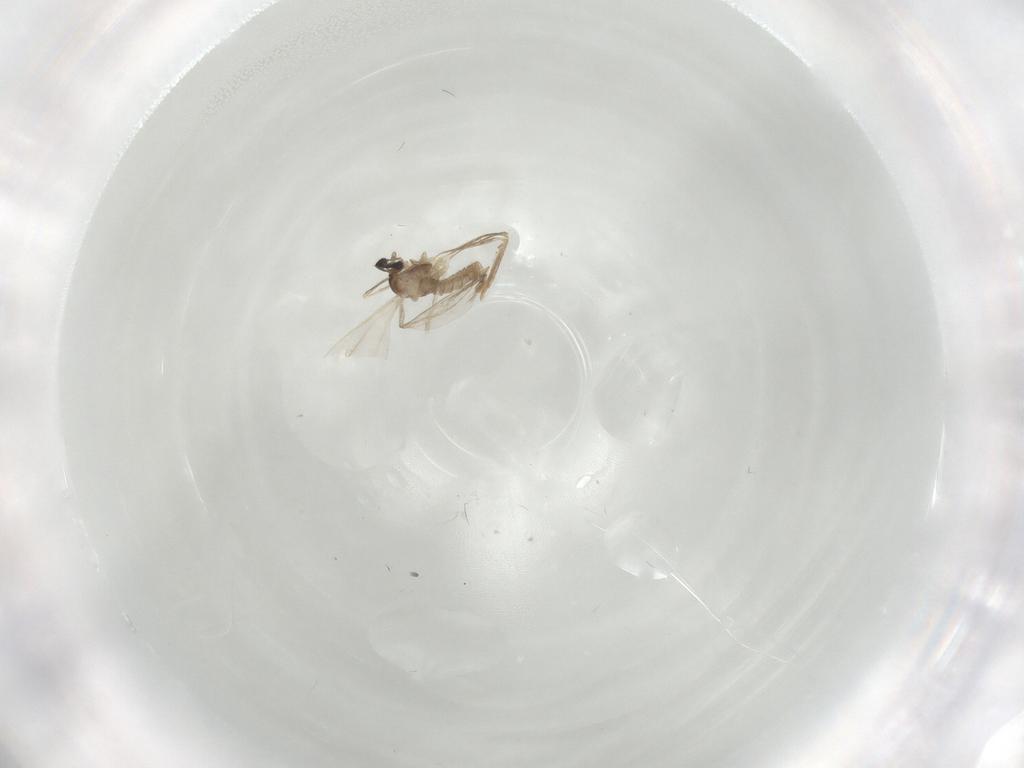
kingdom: Animalia
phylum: Arthropoda
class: Insecta
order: Diptera
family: Cecidomyiidae
